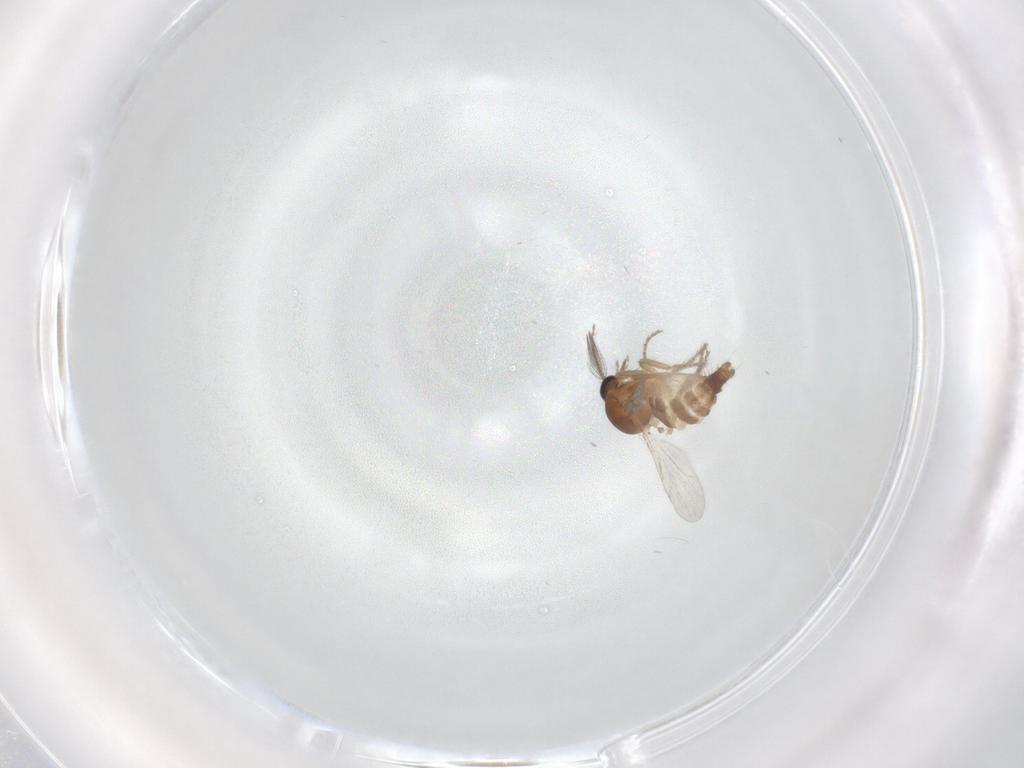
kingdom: Animalia
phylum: Arthropoda
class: Insecta
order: Diptera
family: Ceratopogonidae
